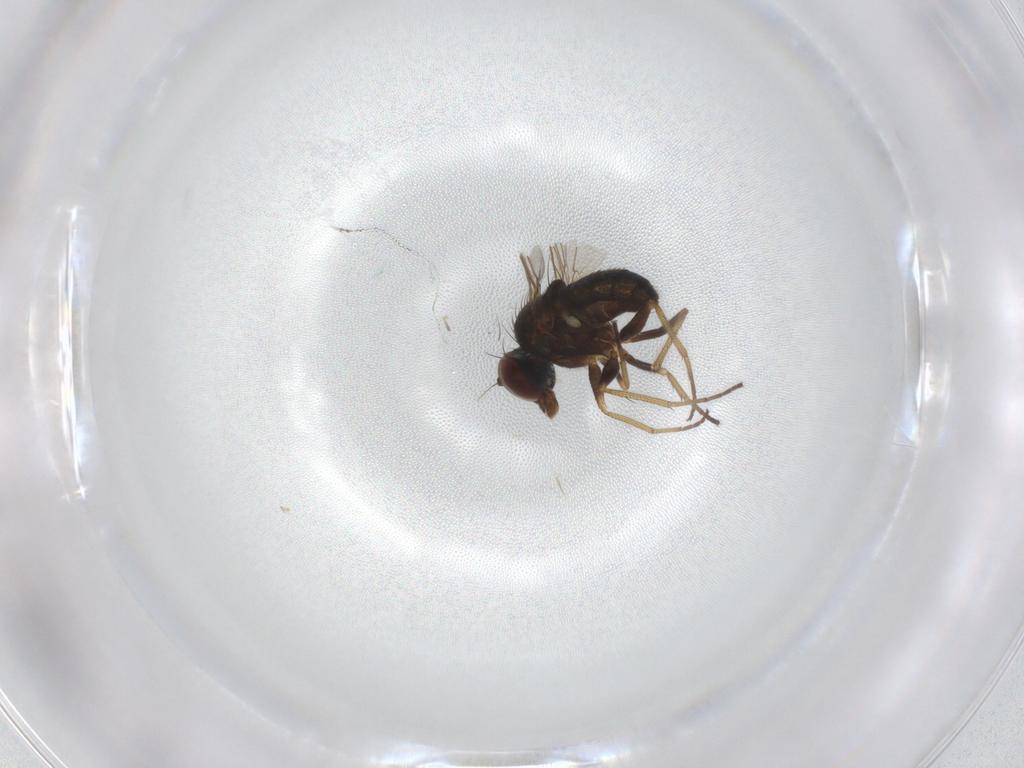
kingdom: Animalia
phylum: Arthropoda
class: Insecta
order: Diptera
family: Dolichopodidae
